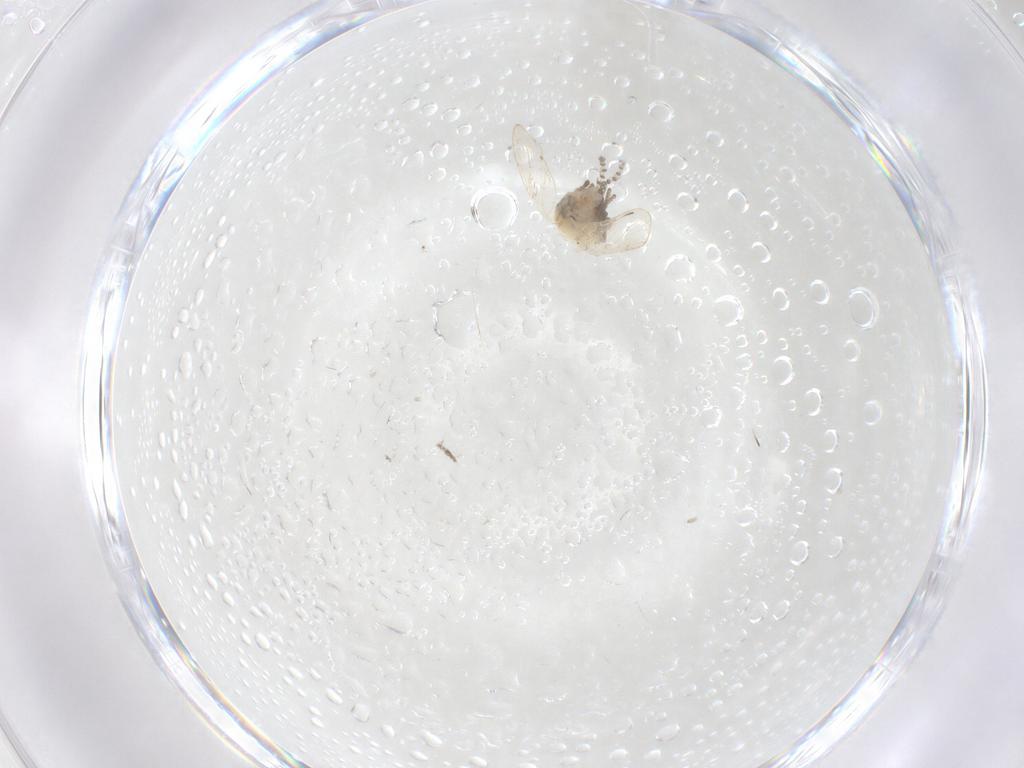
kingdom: Animalia
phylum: Arthropoda
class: Insecta
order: Diptera
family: Psychodidae
